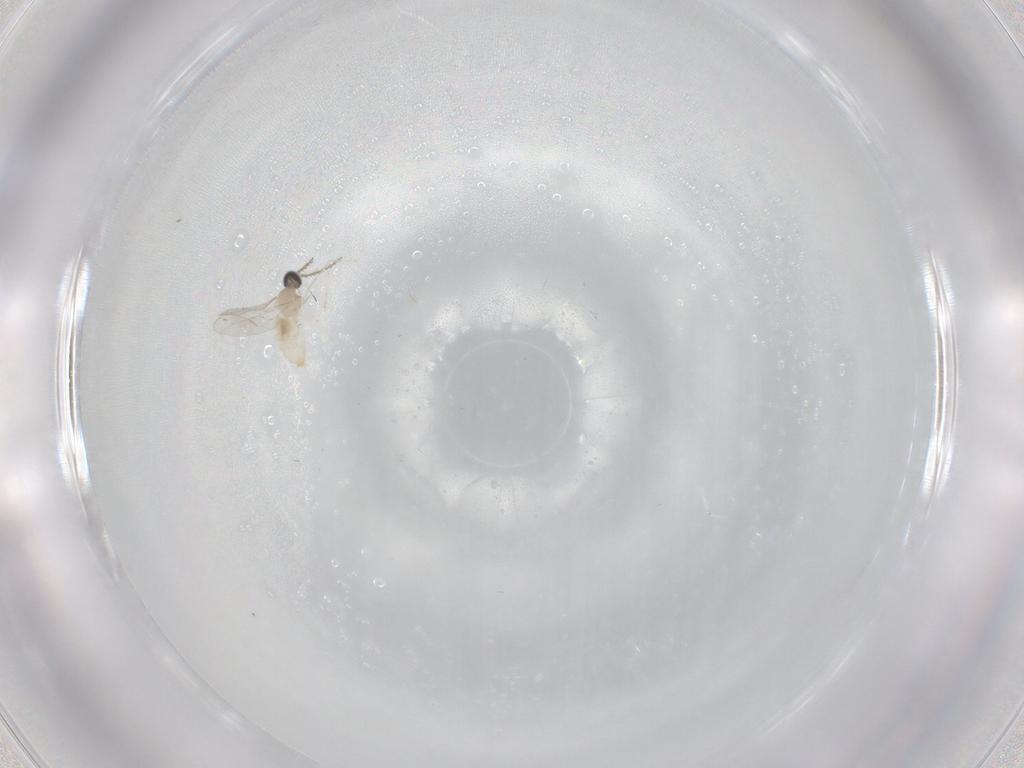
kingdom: Animalia
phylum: Arthropoda
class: Insecta
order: Diptera
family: Cecidomyiidae
